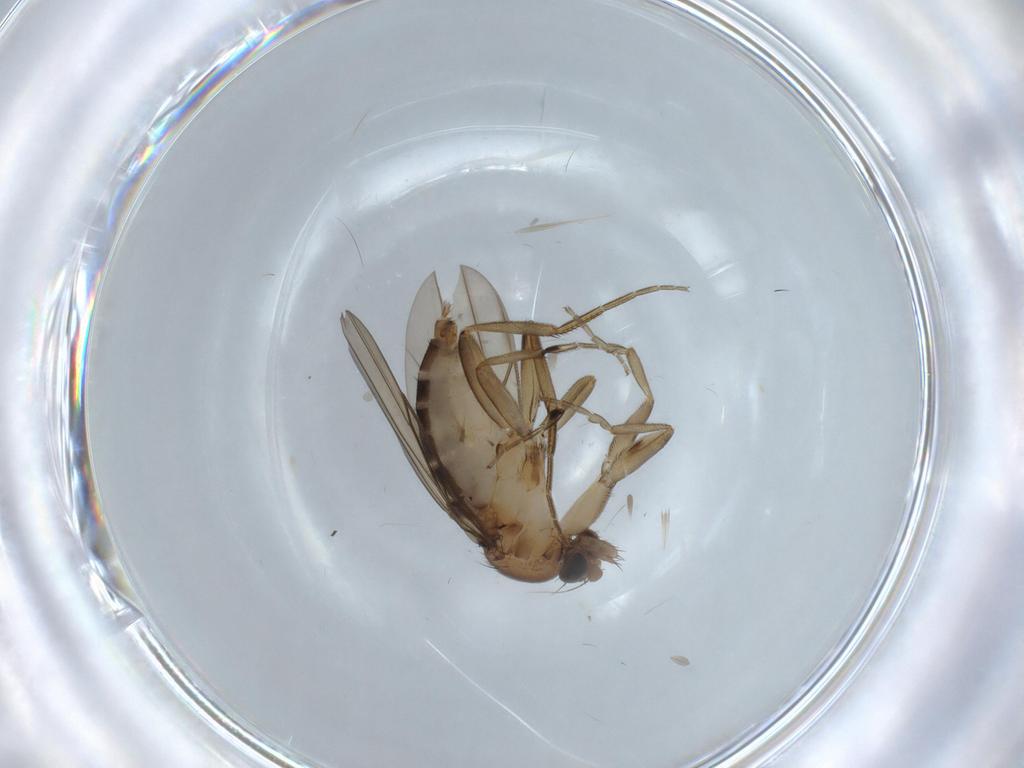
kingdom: Animalia
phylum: Arthropoda
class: Insecta
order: Diptera
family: Phoridae
